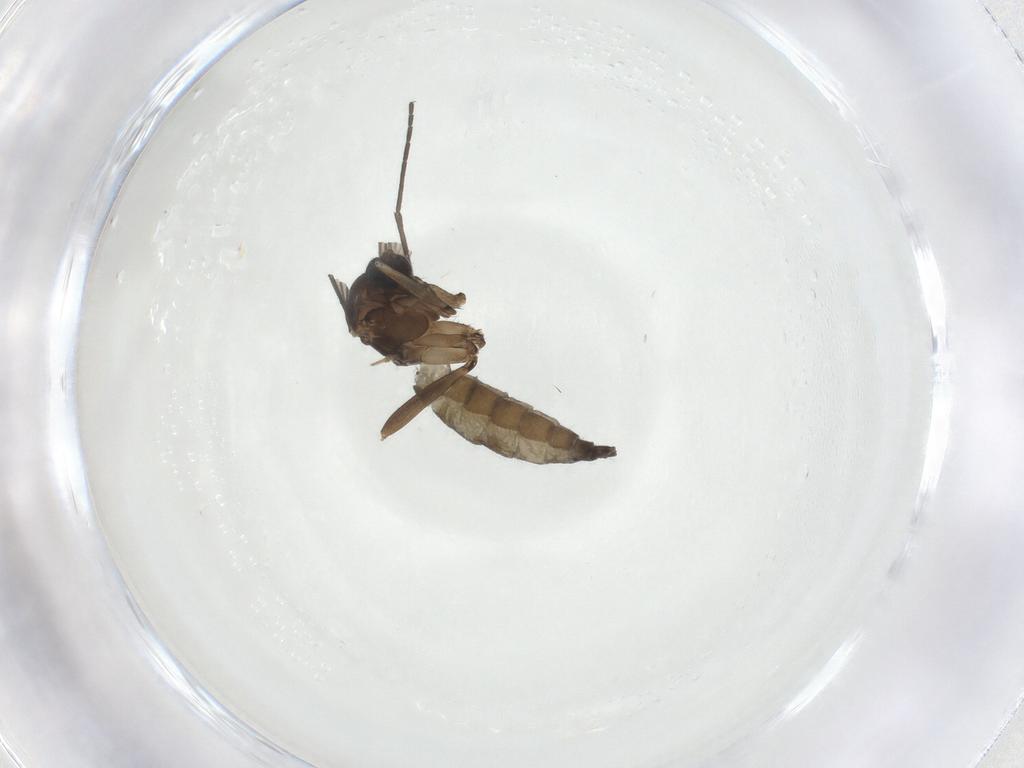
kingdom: Animalia
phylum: Arthropoda
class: Insecta
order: Diptera
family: Sciaridae
